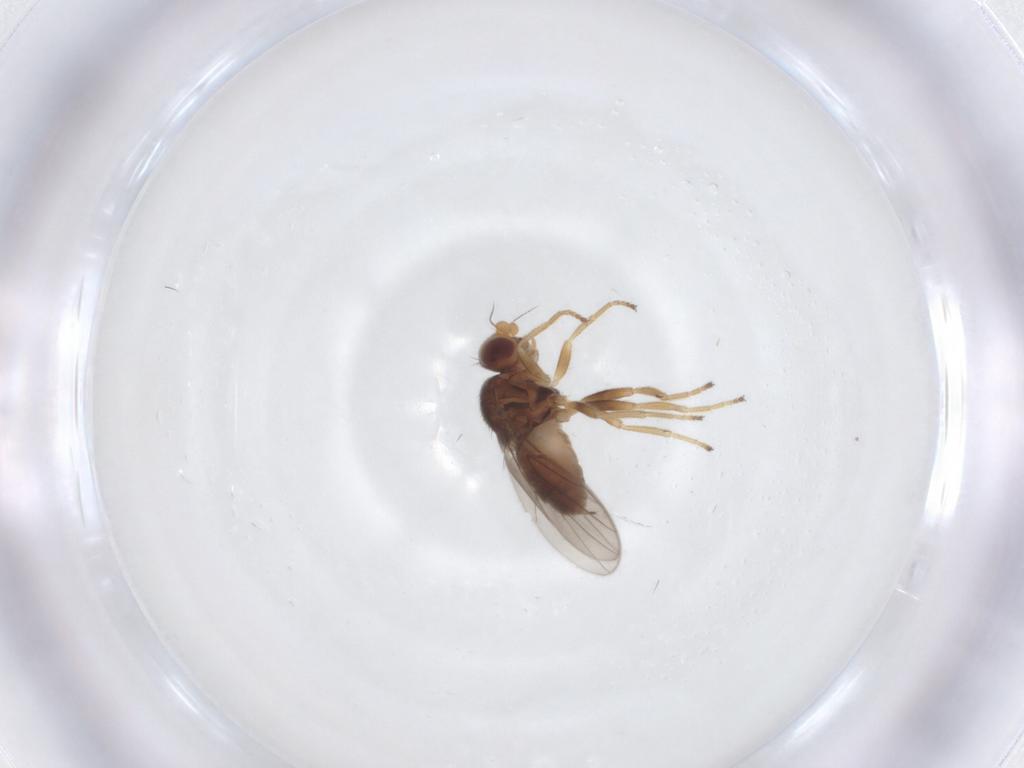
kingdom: Animalia
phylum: Arthropoda
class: Insecta
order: Diptera
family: Chloropidae
